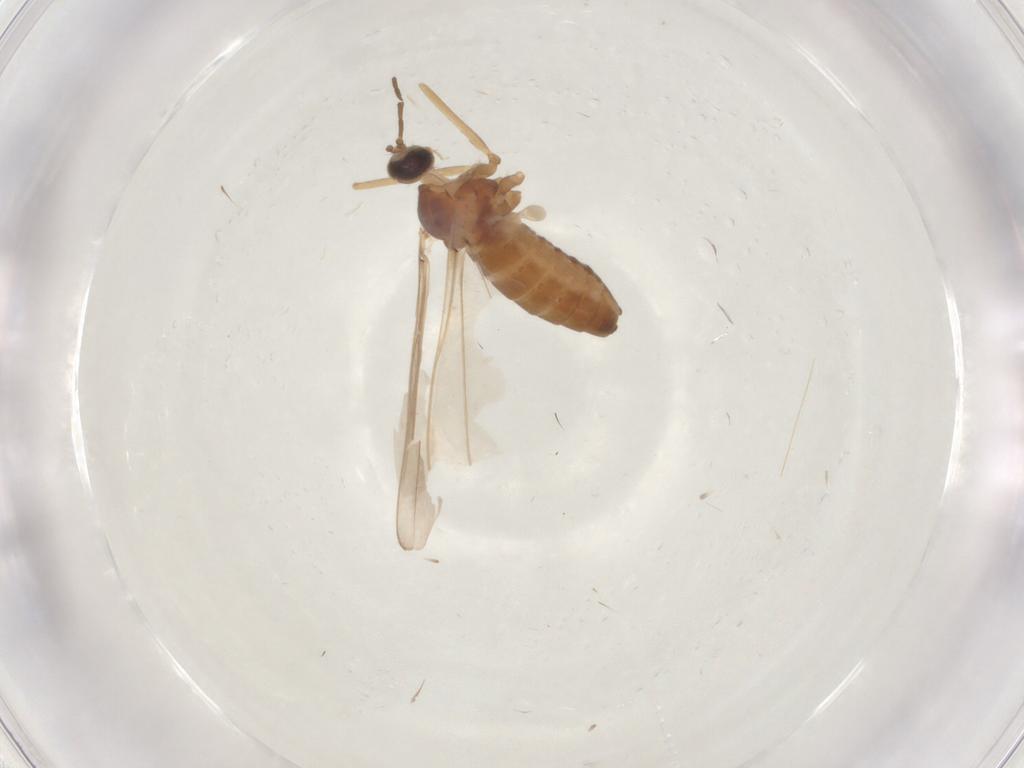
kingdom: Animalia
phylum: Arthropoda
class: Insecta
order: Diptera
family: Cecidomyiidae
